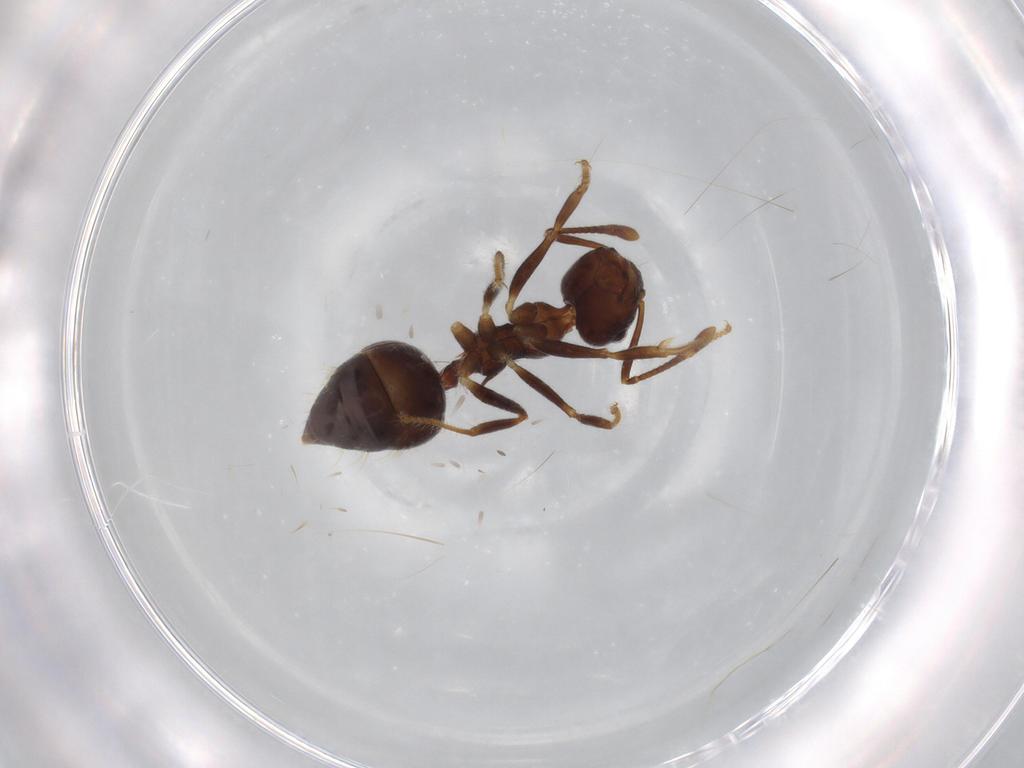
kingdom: Animalia
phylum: Arthropoda
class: Insecta
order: Hymenoptera
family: Formicidae
